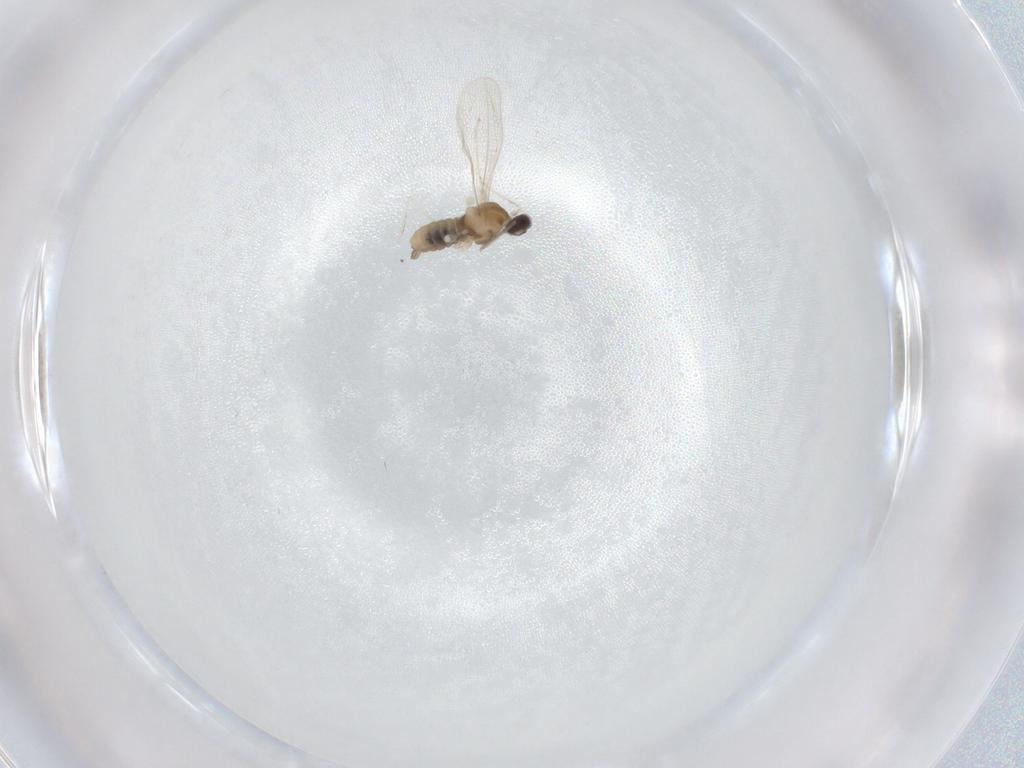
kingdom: Animalia
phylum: Arthropoda
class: Insecta
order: Diptera
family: Cecidomyiidae
